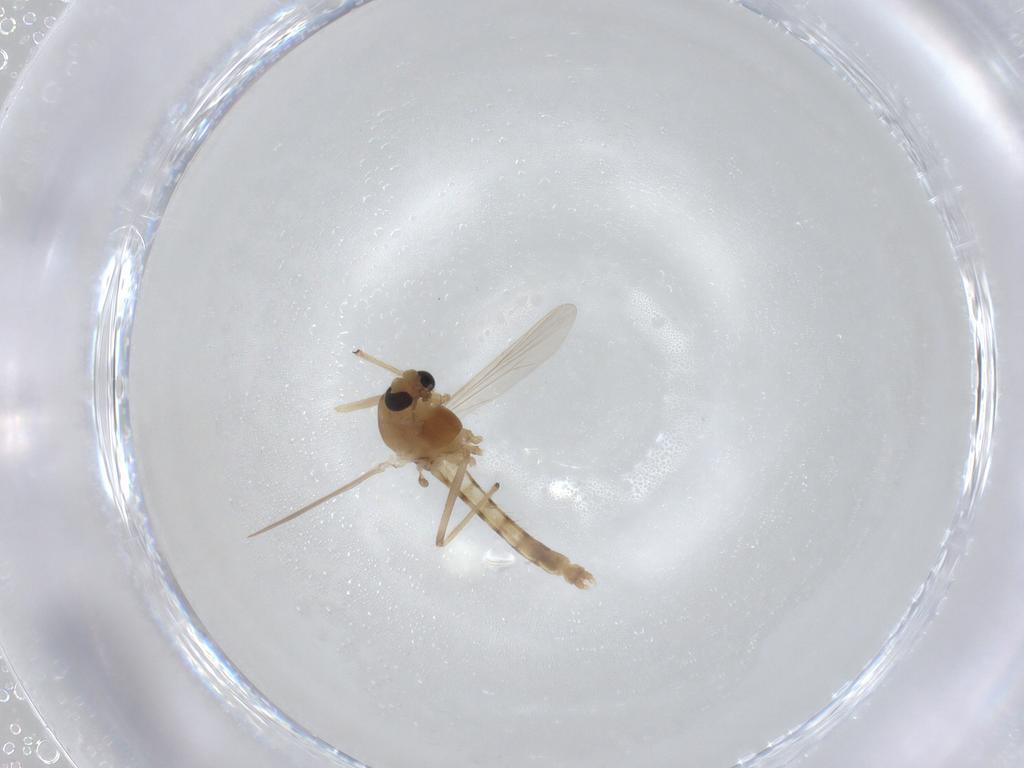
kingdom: Animalia
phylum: Arthropoda
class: Insecta
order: Diptera
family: Chironomidae
